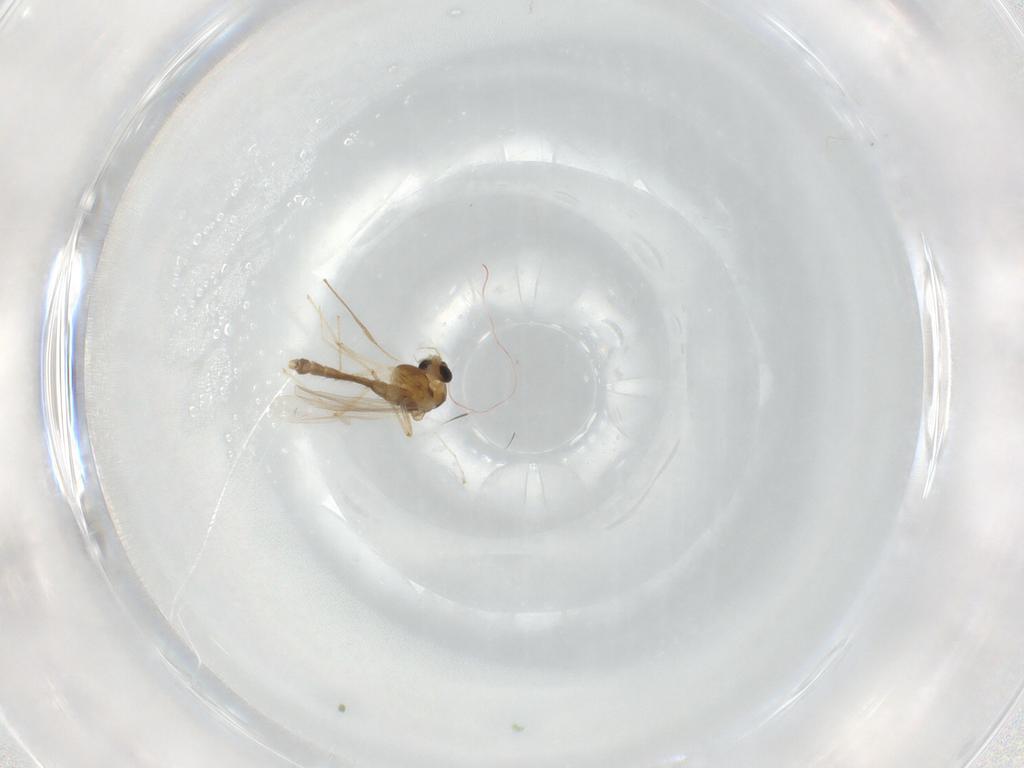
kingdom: Animalia
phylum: Arthropoda
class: Insecta
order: Diptera
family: Chironomidae
